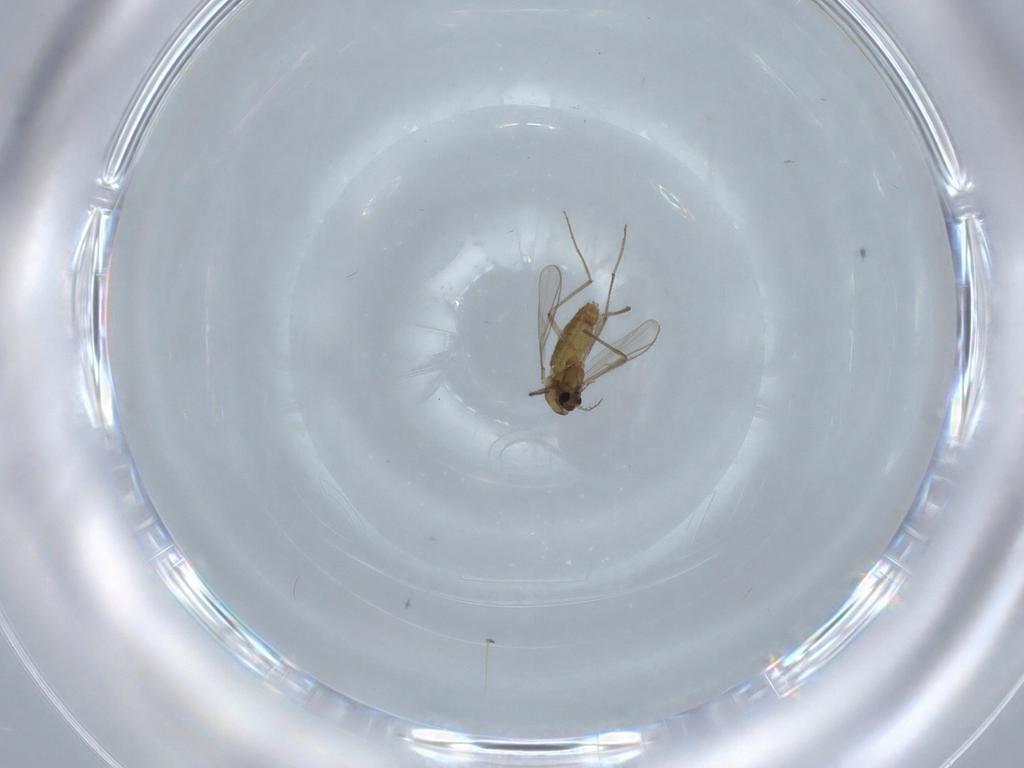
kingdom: Animalia
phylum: Arthropoda
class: Insecta
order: Diptera
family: Chironomidae
